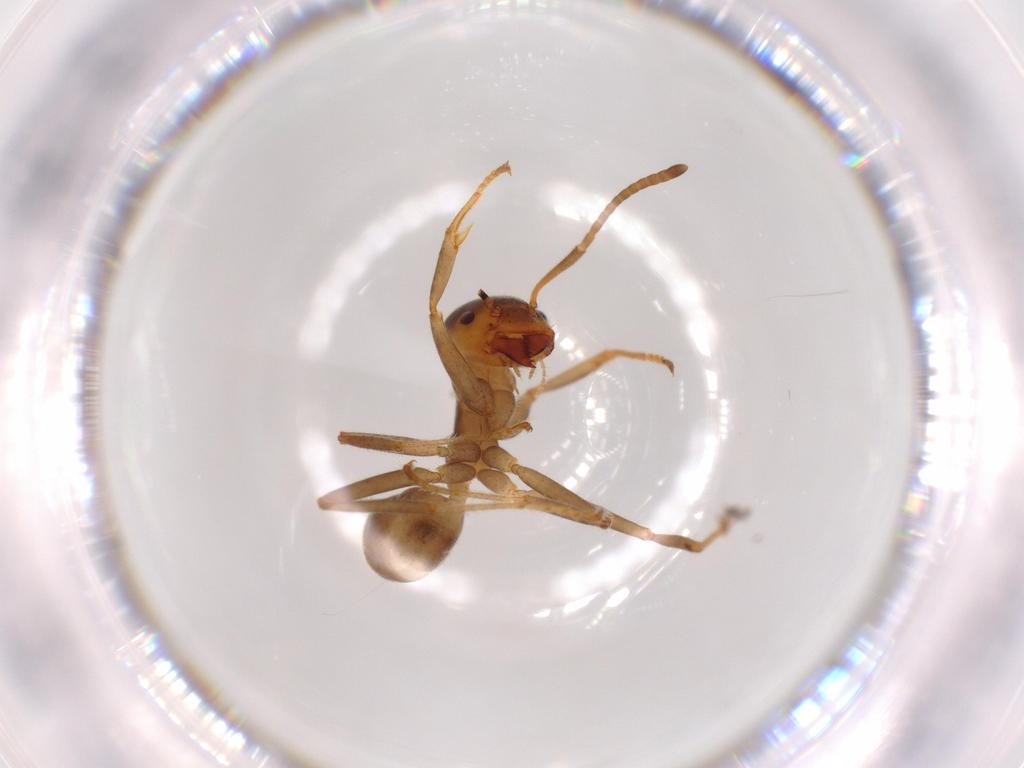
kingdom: Animalia
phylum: Arthropoda
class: Insecta
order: Hymenoptera
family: Formicidae
